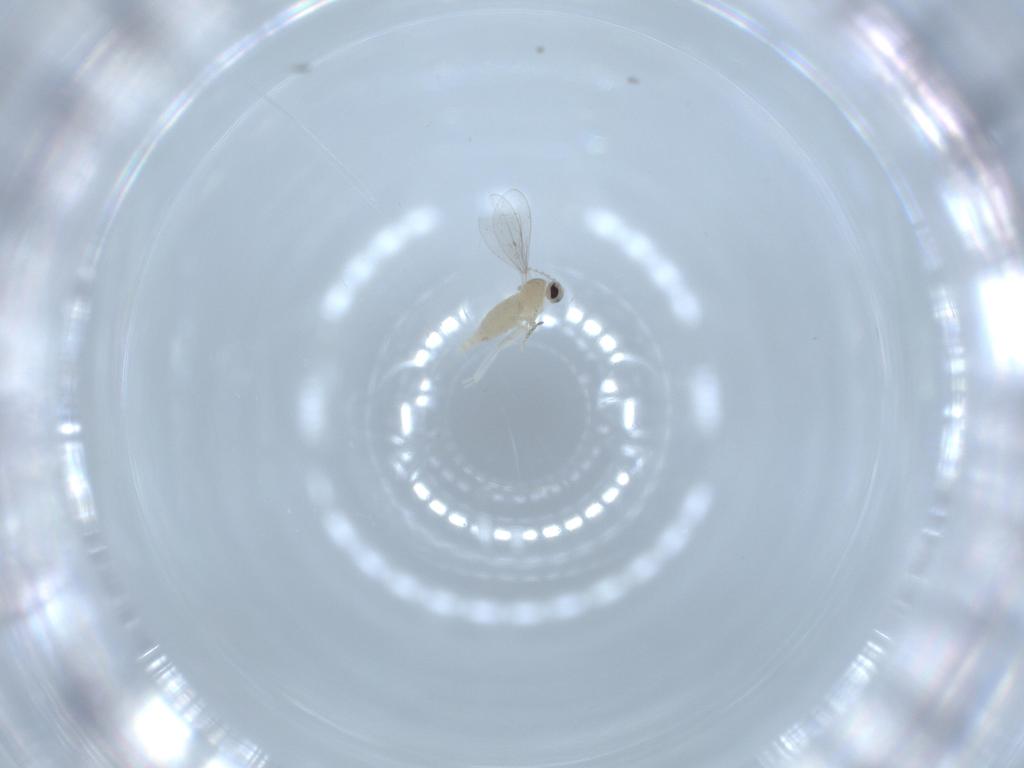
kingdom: Animalia
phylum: Arthropoda
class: Insecta
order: Diptera
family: Cecidomyiidae
